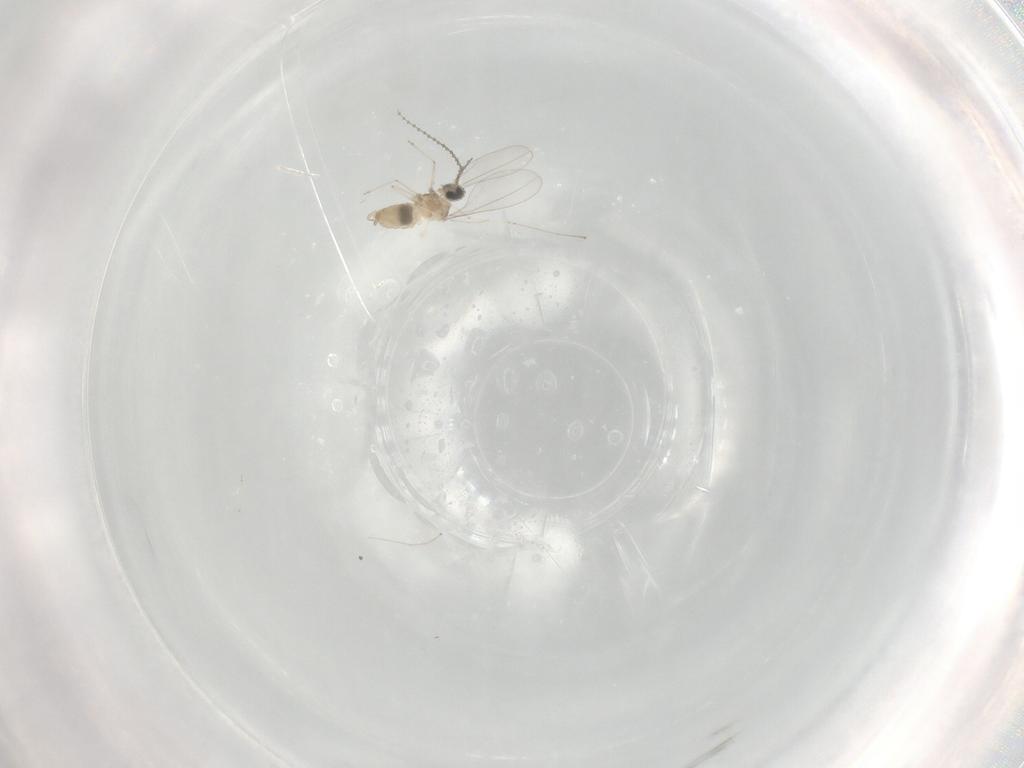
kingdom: Animalia
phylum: Arthropoda
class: Insecta
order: Diptera
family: Cecidomyiidae
